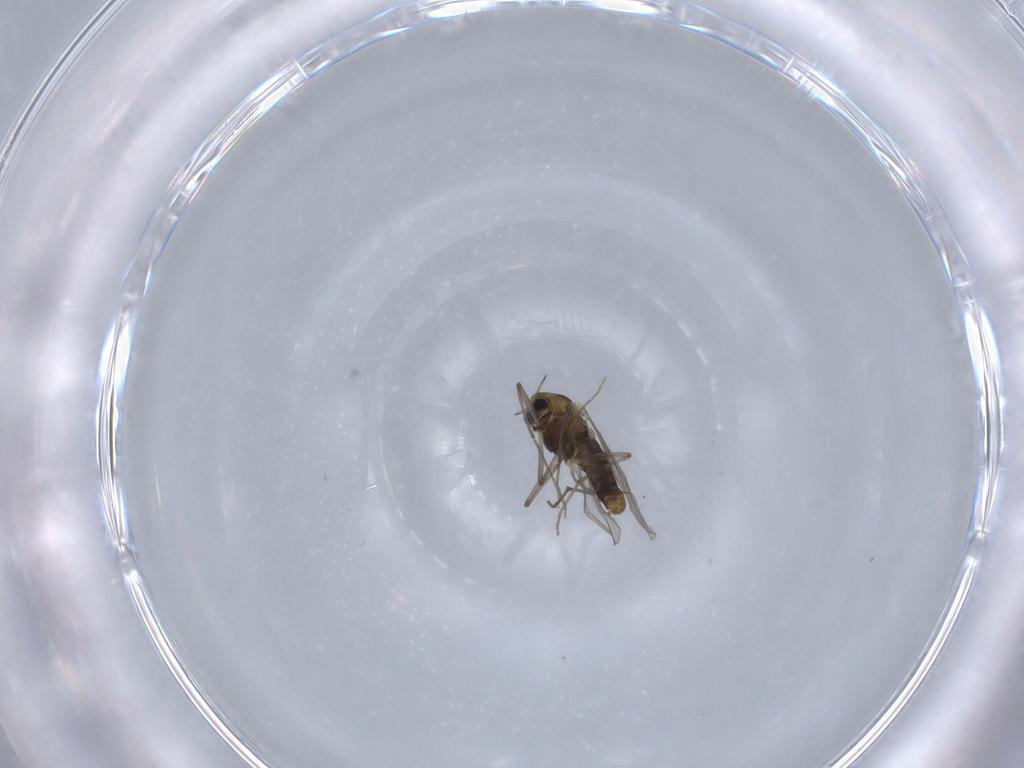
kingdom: Animalia
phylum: Arthropoda
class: Insecta
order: Diptera
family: Chironomidae
